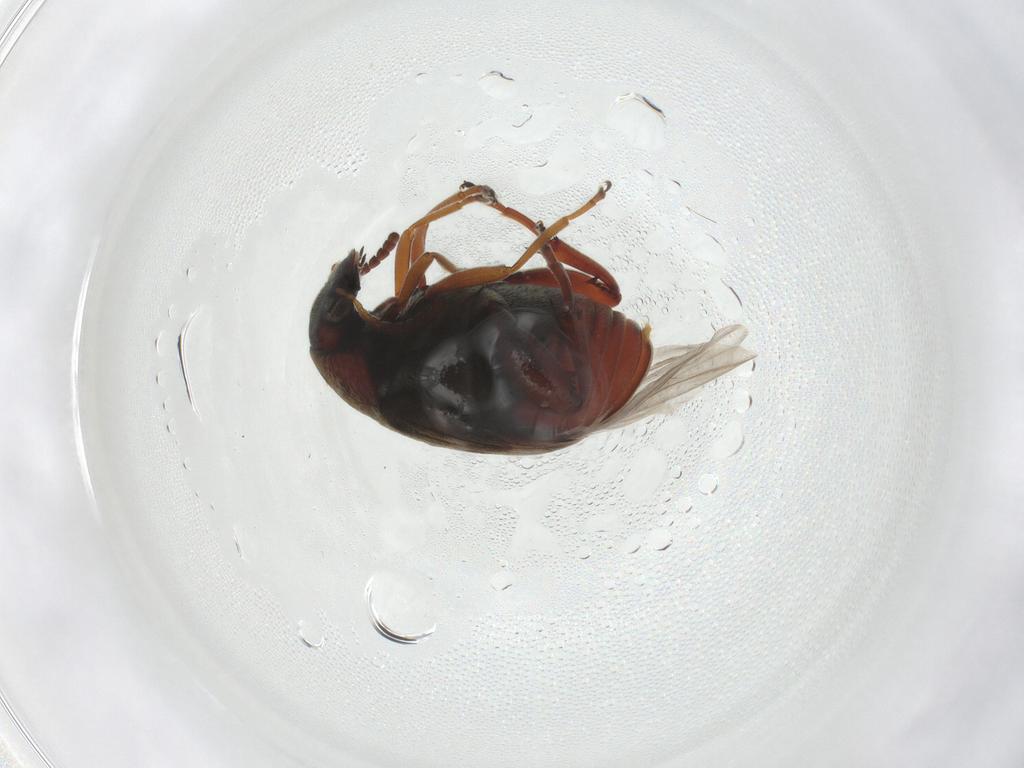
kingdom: Animalia
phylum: Arthropoda
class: Insecta
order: Coleoptera
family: Chrysomelidae
